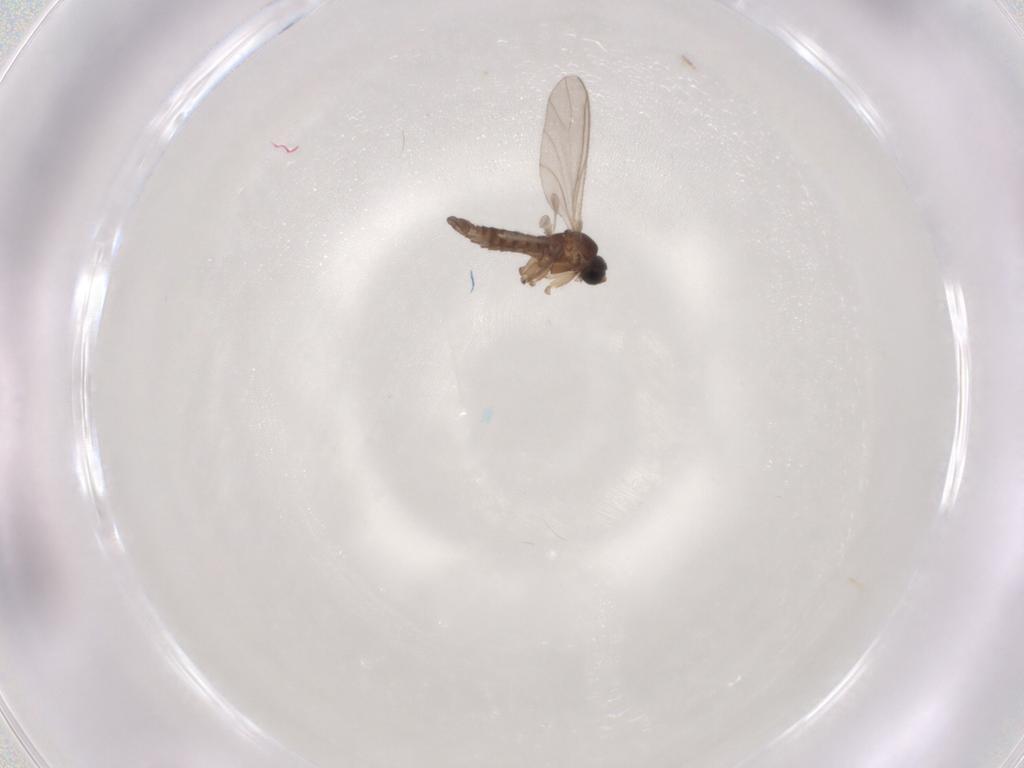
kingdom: Animalia
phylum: Arthropoda
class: Insecta
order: Diptera
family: Sciaridae
